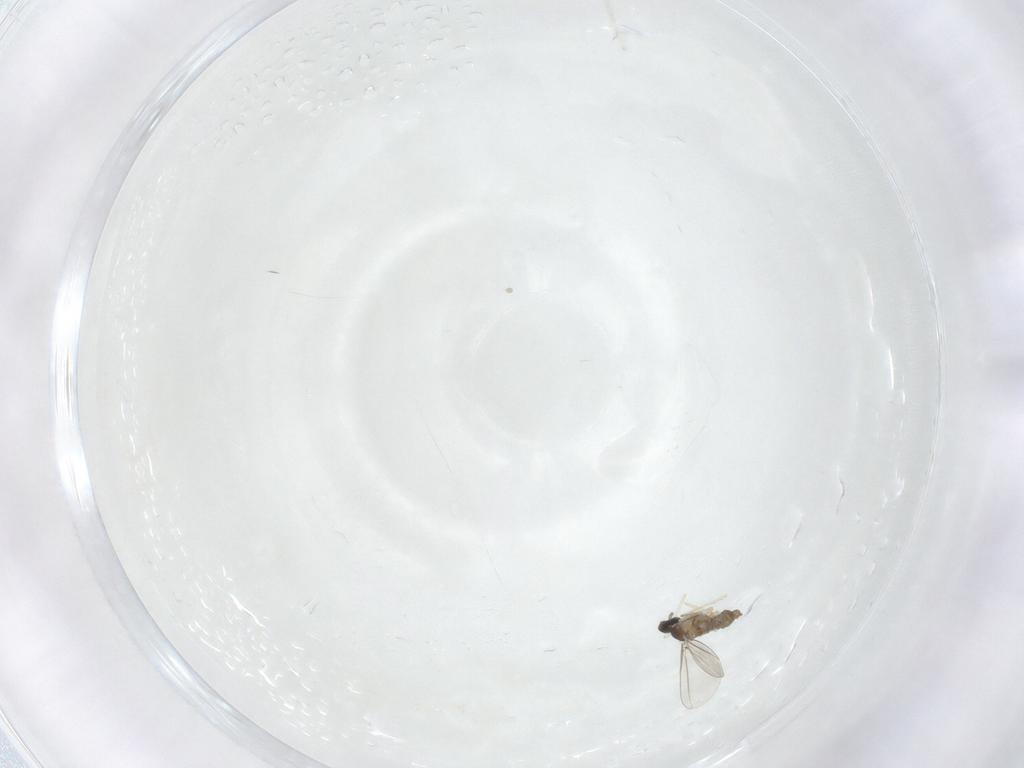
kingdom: Animalia
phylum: Arthropoda
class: Insecta
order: Diptera
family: Cecidomyiidae
